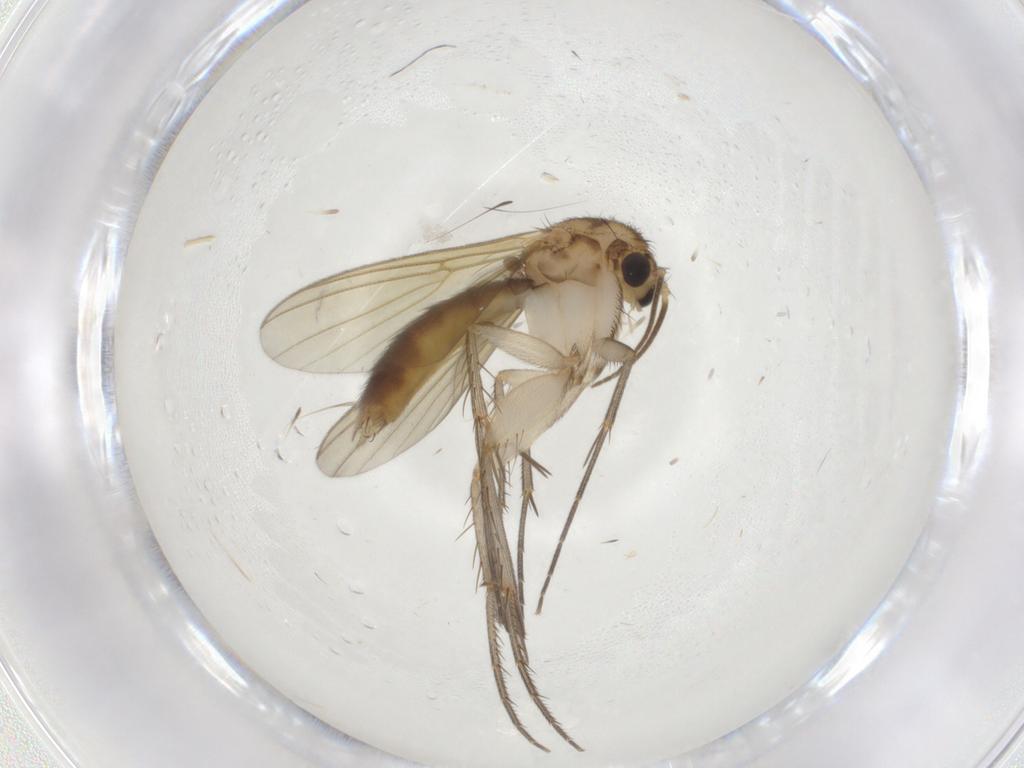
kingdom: Animalia
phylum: Arthropoda
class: Insecta
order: Diptera
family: Mycetophilidae
